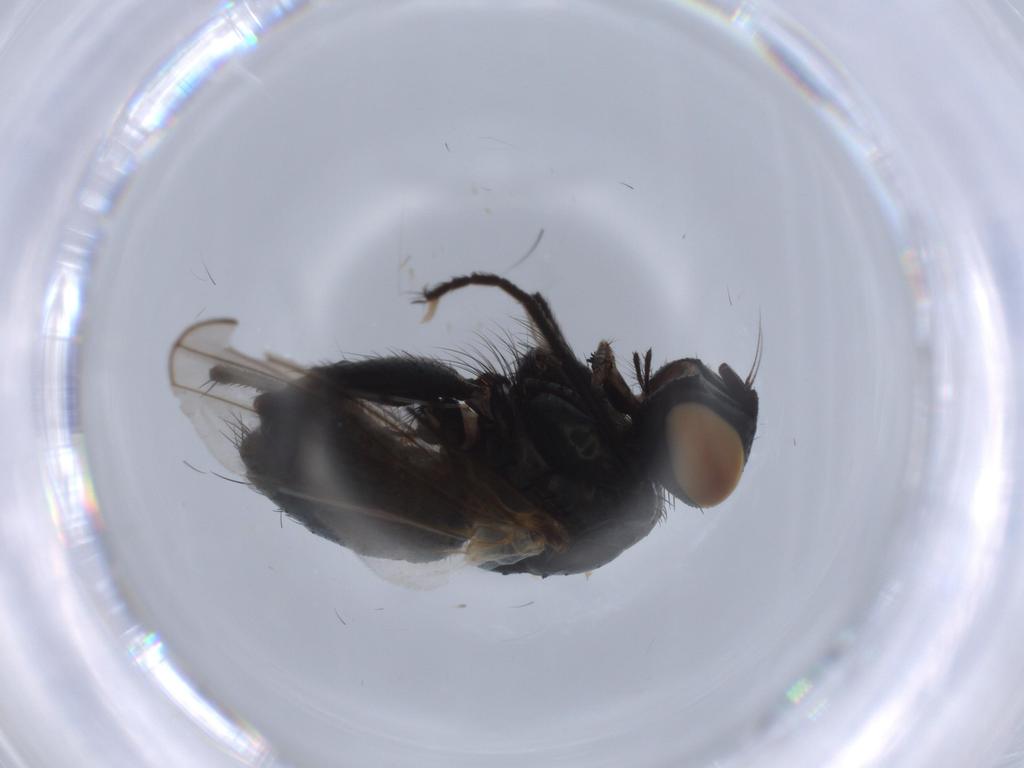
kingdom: Animalia
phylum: Arthropoda
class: Insecta
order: Diptera
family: Muscidae
